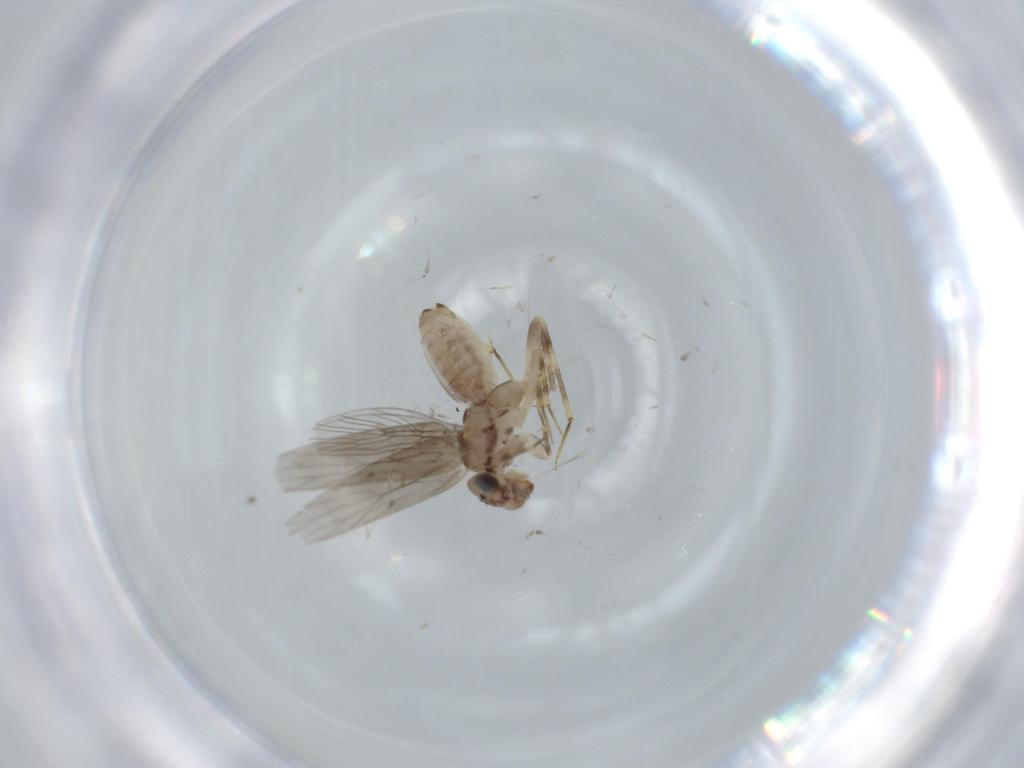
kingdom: Animalia
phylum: Arthropoda
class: Insecta
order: Psocodea
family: Lepidopsocidae
